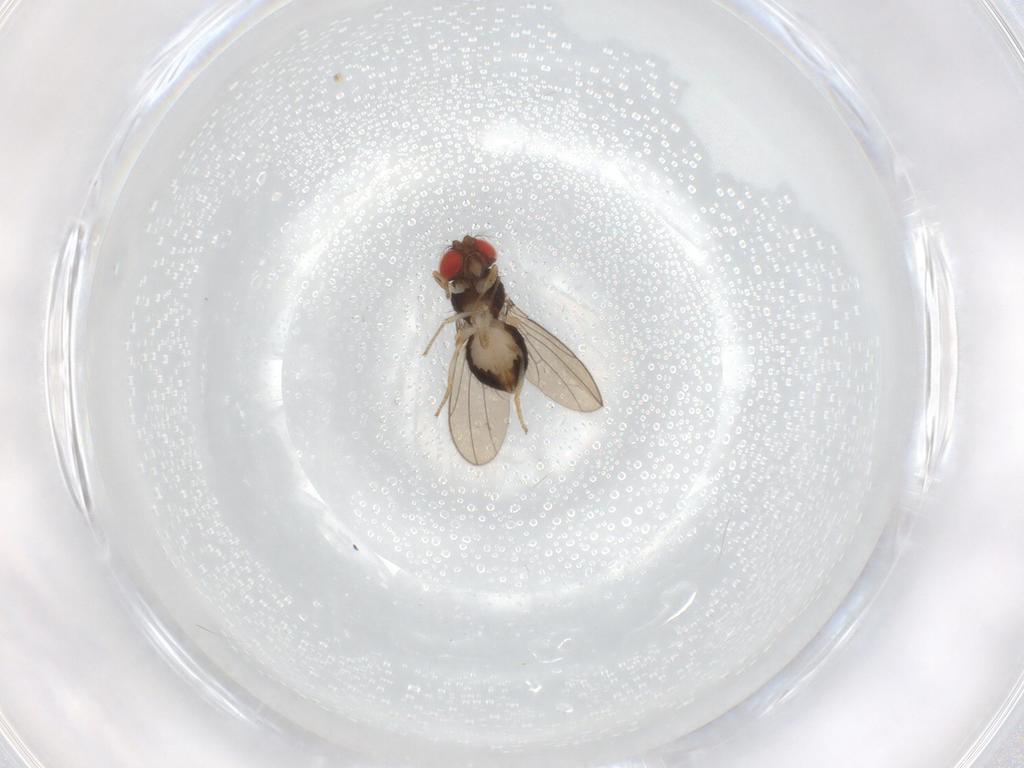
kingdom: Animalia
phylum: Arthropoda
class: Insecta
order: Diptera
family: Drosophilidae
